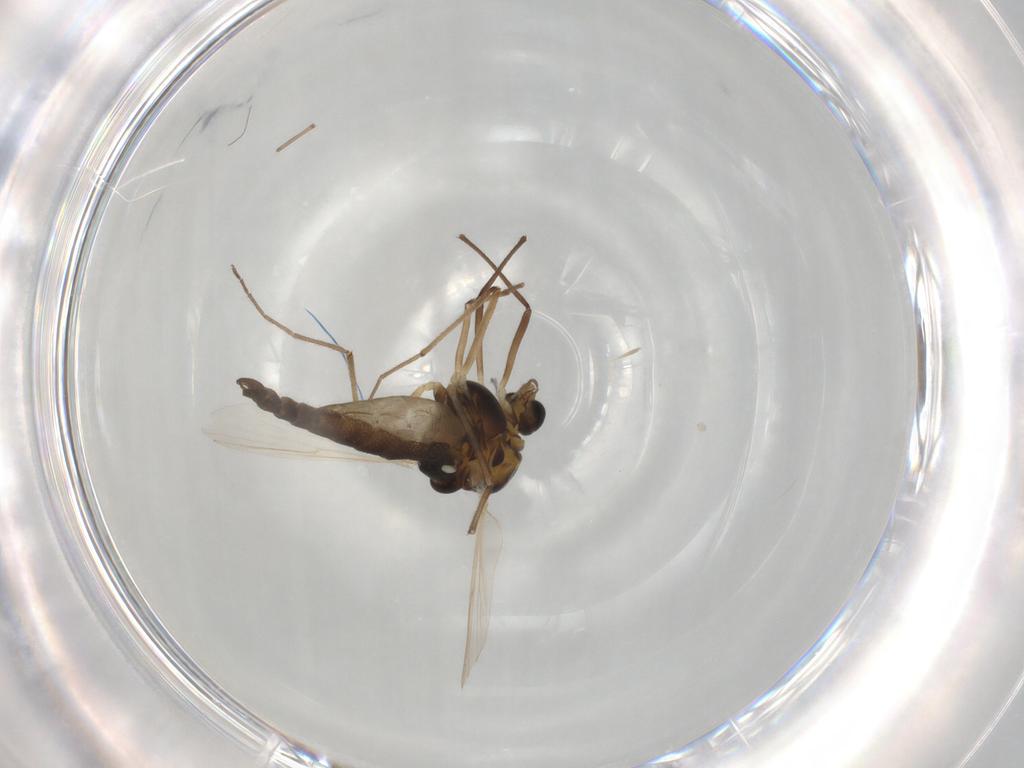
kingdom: Animalia
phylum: Arthropoda
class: Insecta
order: Diptera
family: Chironomidae
